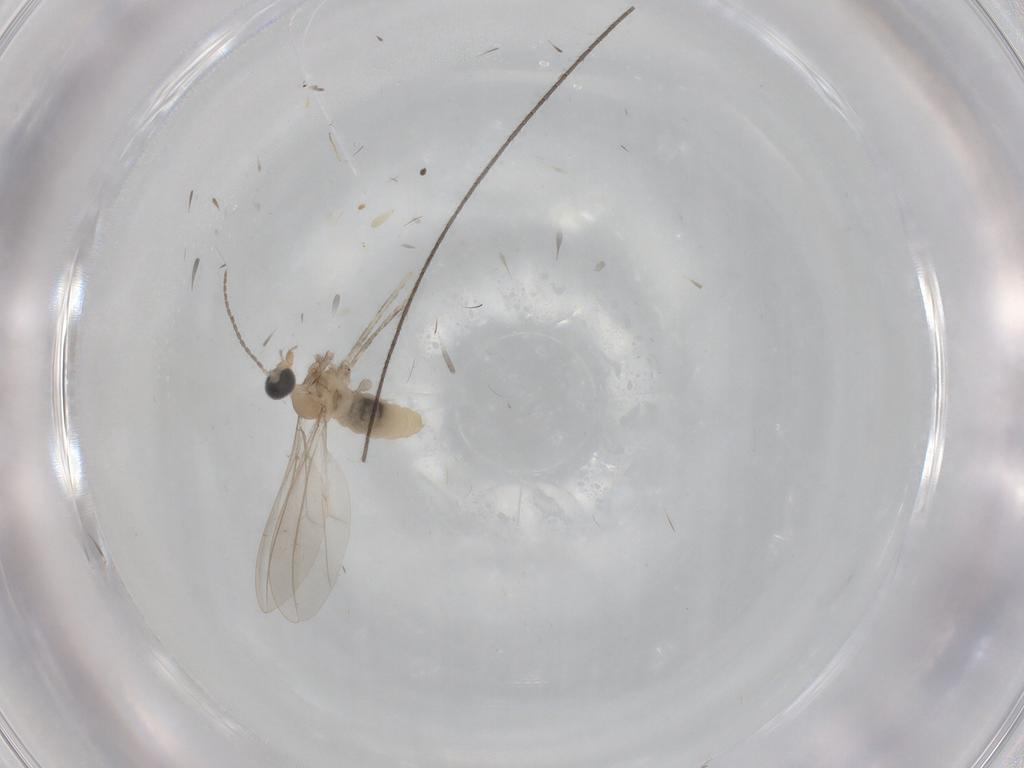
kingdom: Animalia
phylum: Arthropoda
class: Insecta
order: Diptera
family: Dolichopodidae
